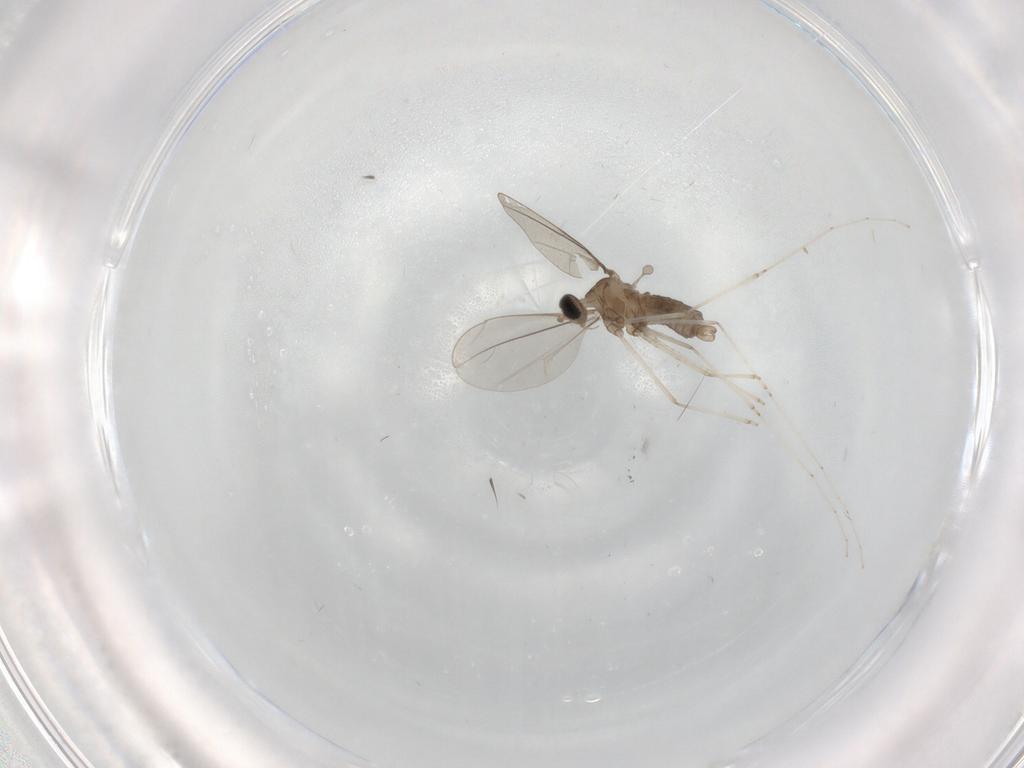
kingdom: Animalia
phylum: Arthropoda
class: Insecta
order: Diptera
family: Cecidomyiidae
